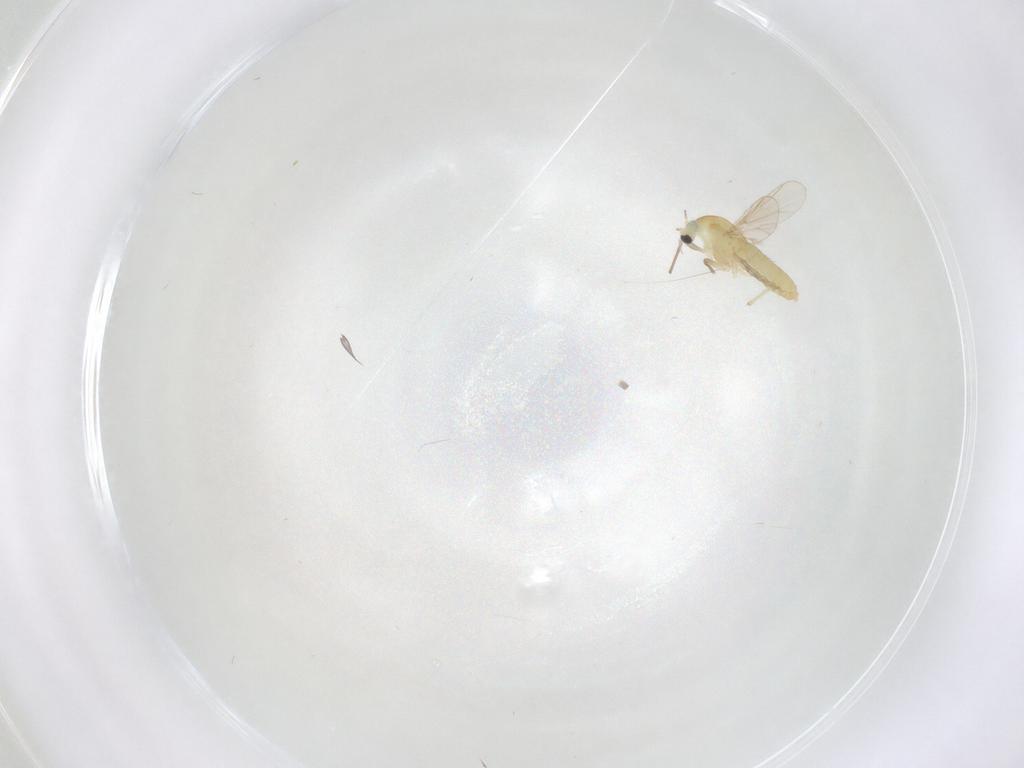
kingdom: Animalia
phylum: Arthropoda
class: Insecta
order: Diptera
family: Chironomidae
